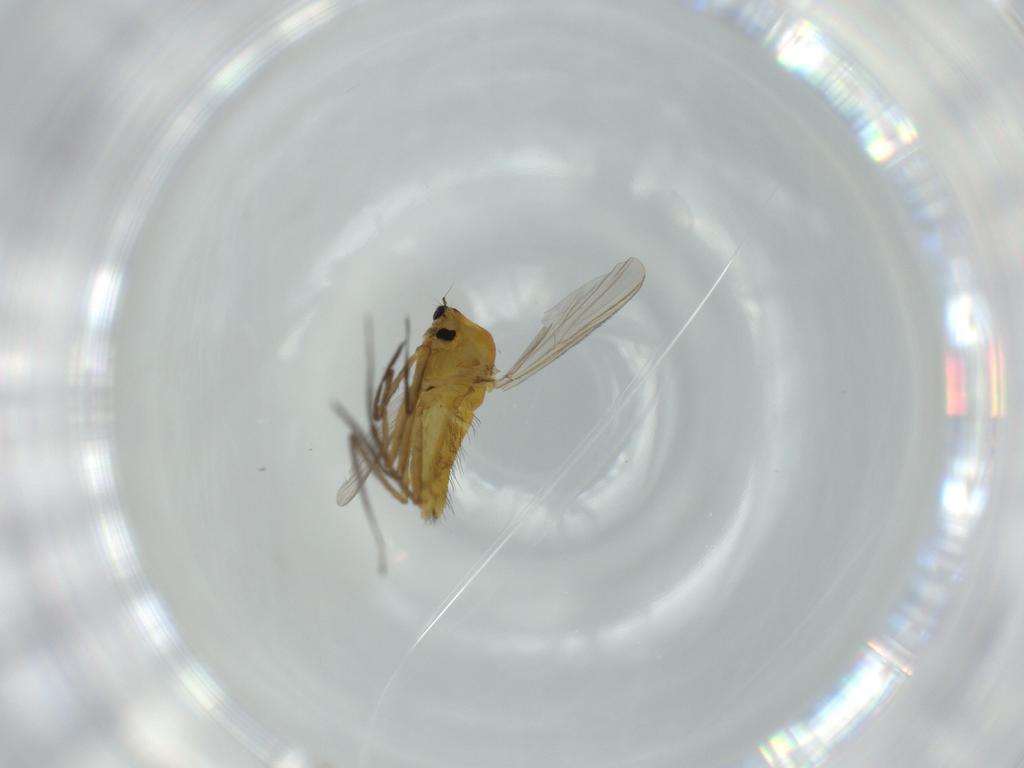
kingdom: Animalia
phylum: Arthropoda
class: Insecta
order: Diptera
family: Chironomidae
